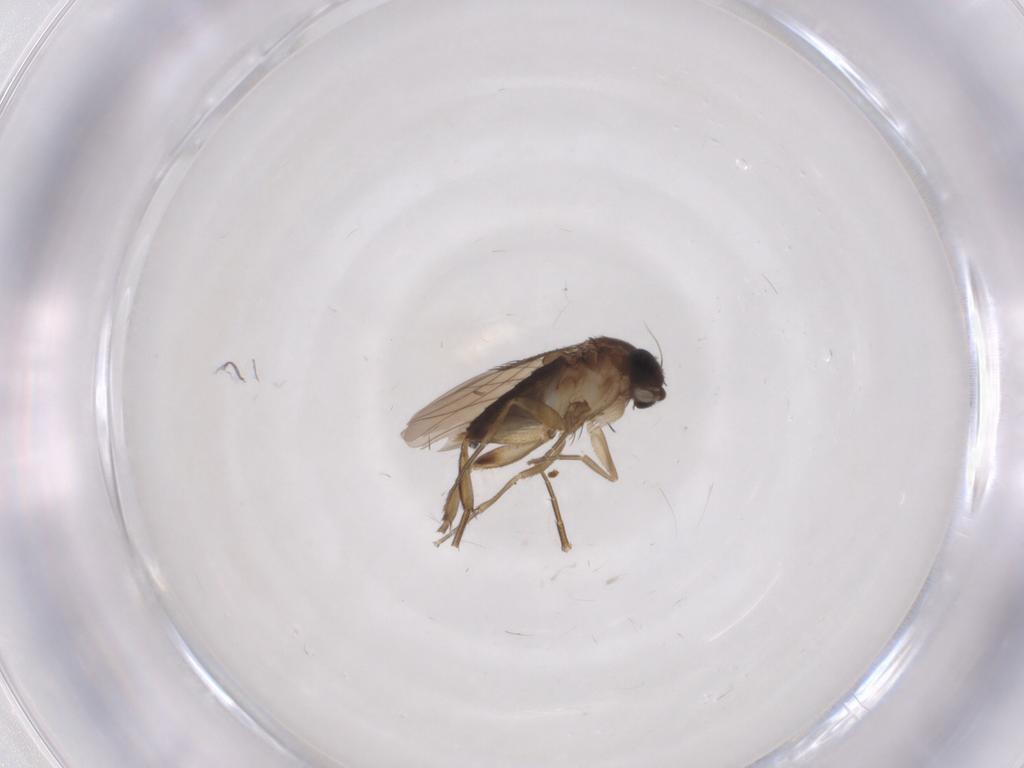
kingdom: Animalia
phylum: Arthropoda
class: Insecta
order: Diptera
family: Phoridae
